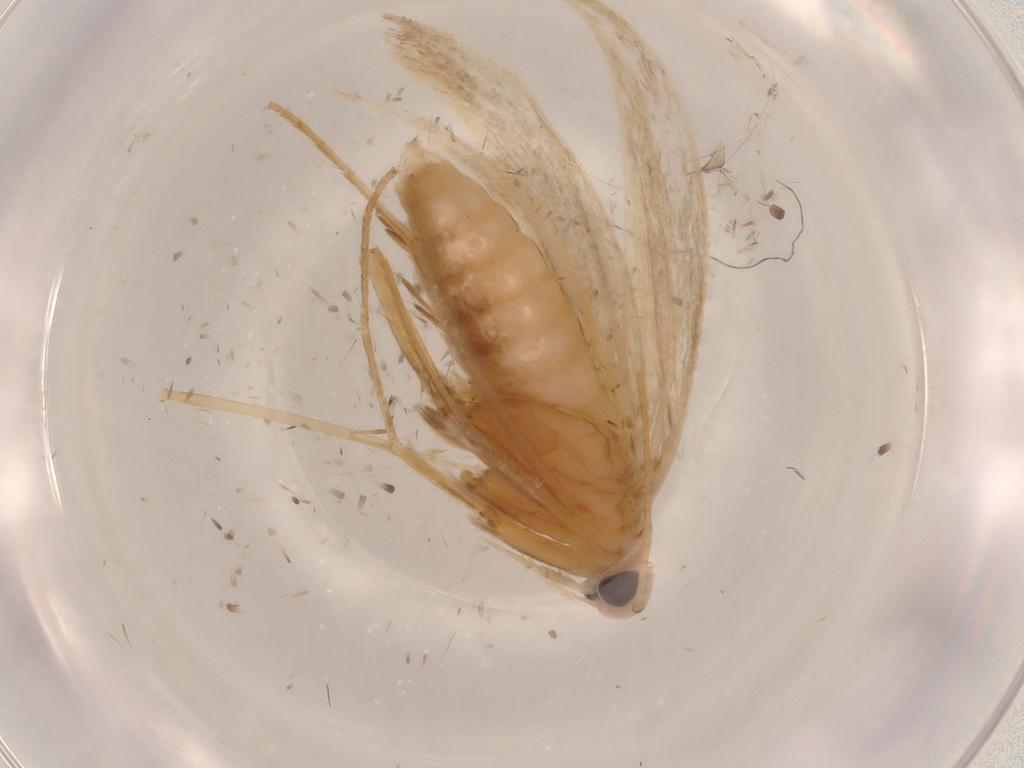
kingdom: Animalia
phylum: Arthropoda
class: Insecta
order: Lepidoptera
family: Xyloryctidae
